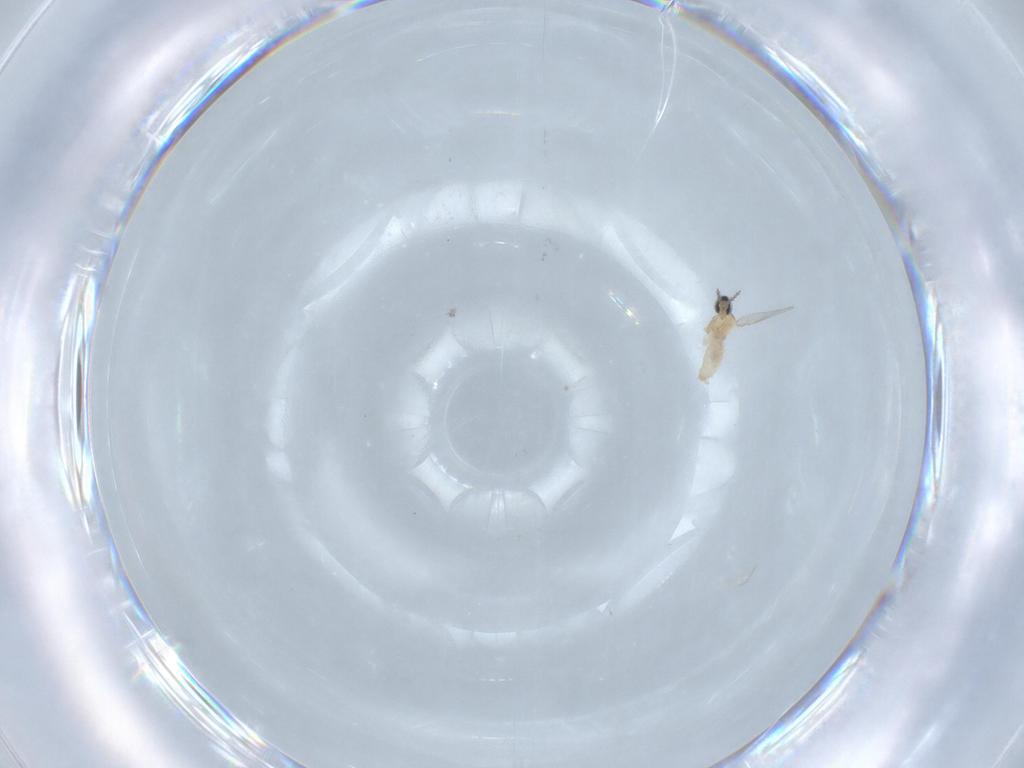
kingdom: Animalia
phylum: Arthropoda
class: Insecta
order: Diptera
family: Cecidomyiidae
